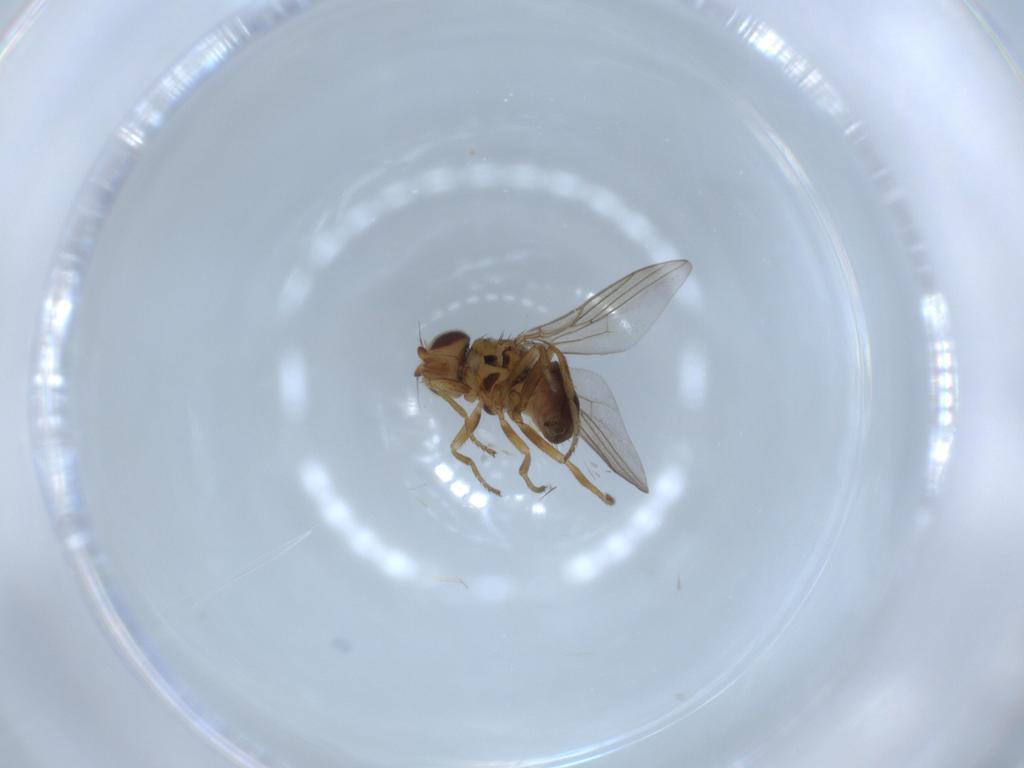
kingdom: Animalia
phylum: Arthropoda
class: Insecta
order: Diptera
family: Chloropidae
